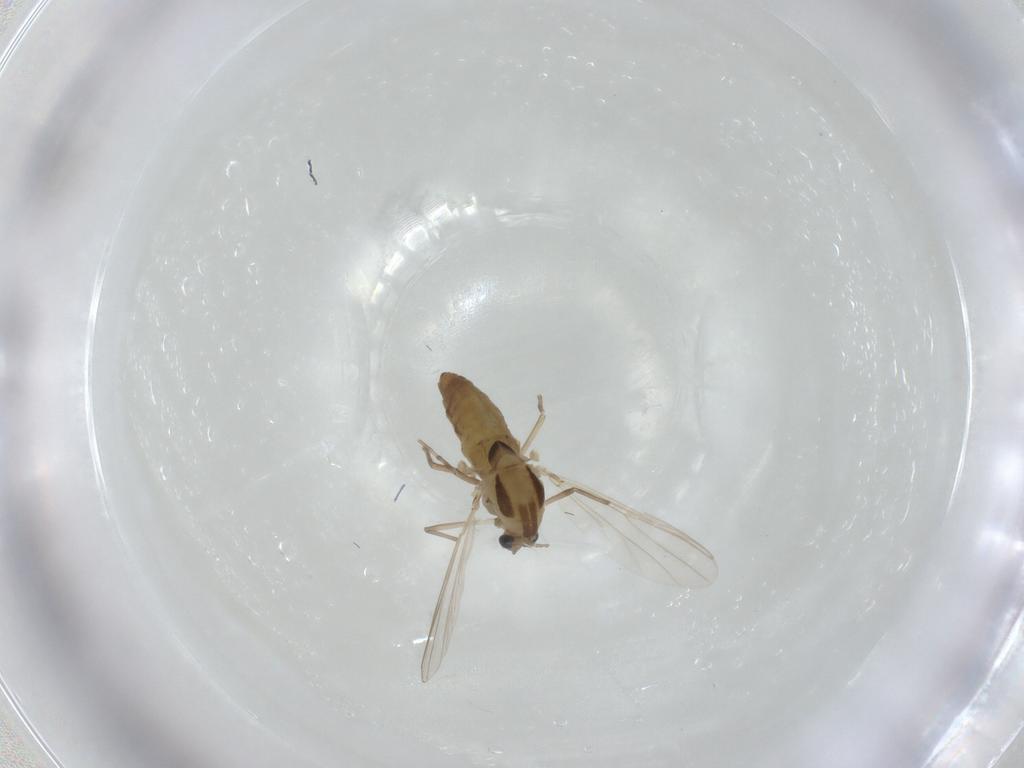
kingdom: Animalia
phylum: Arthropoda
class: Insecta
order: Diptera
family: Chironomidae
